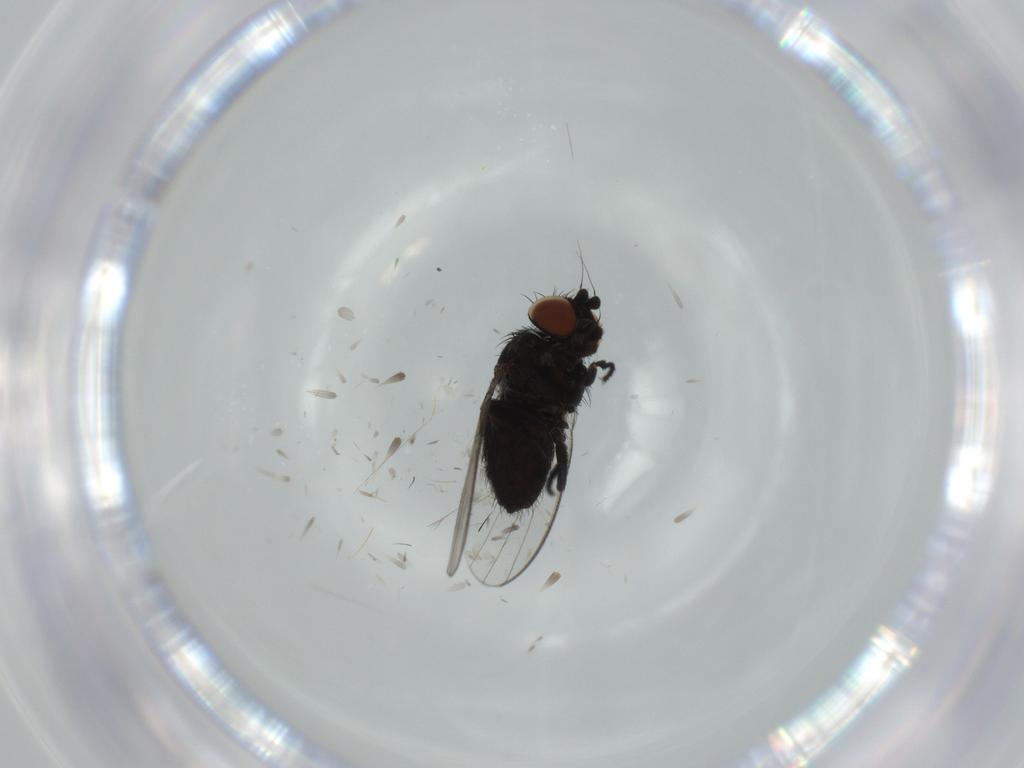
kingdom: Animalia
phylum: Arthropoda
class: Insecta
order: Diptera
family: Milichiidae
